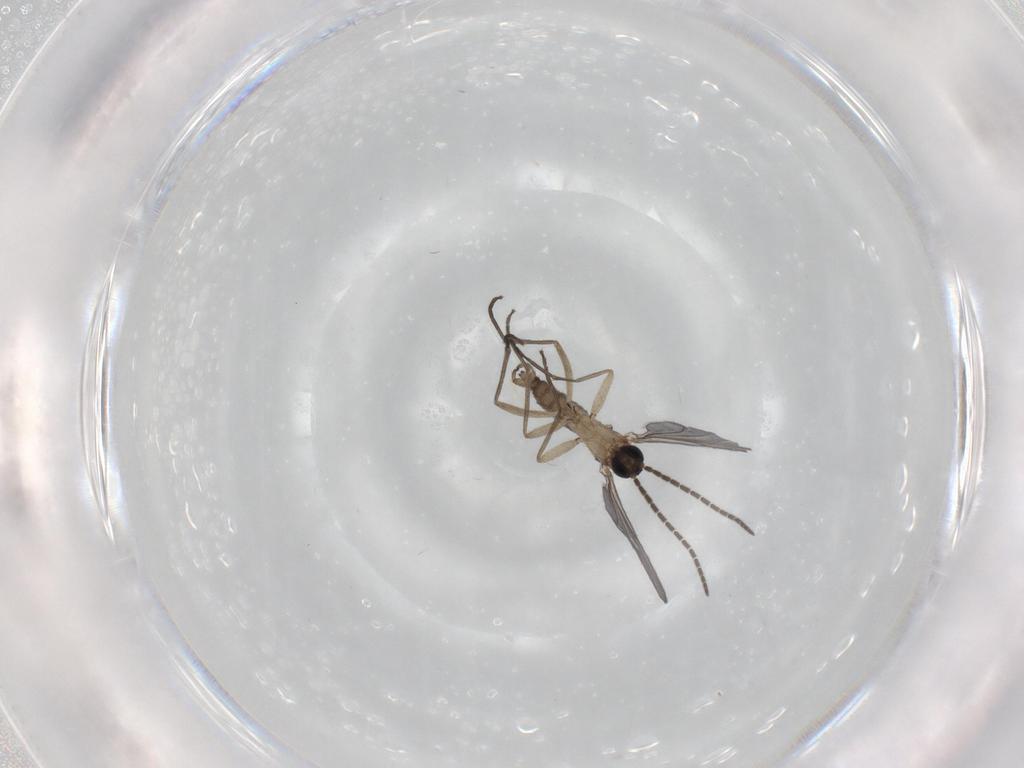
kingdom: Animalia
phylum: Arthropoda
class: Insecta
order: Diptera
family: Sciaridae
